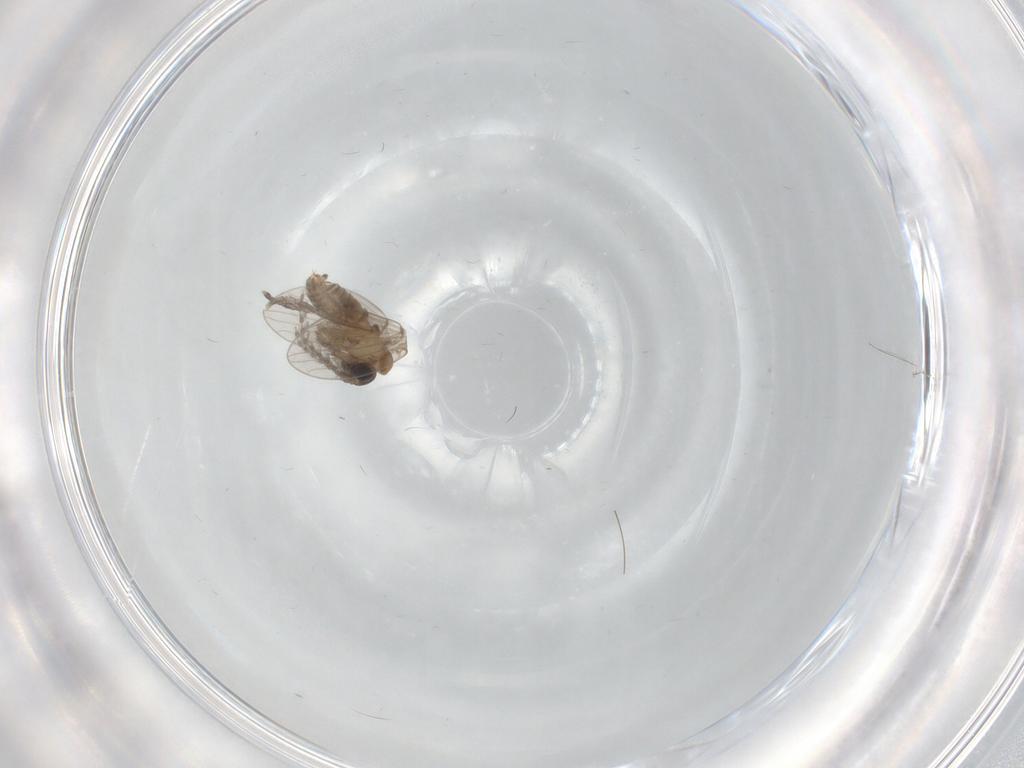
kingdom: Animalia
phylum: Arthropoda
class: Insecta
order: Diptera
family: Psychodidae
